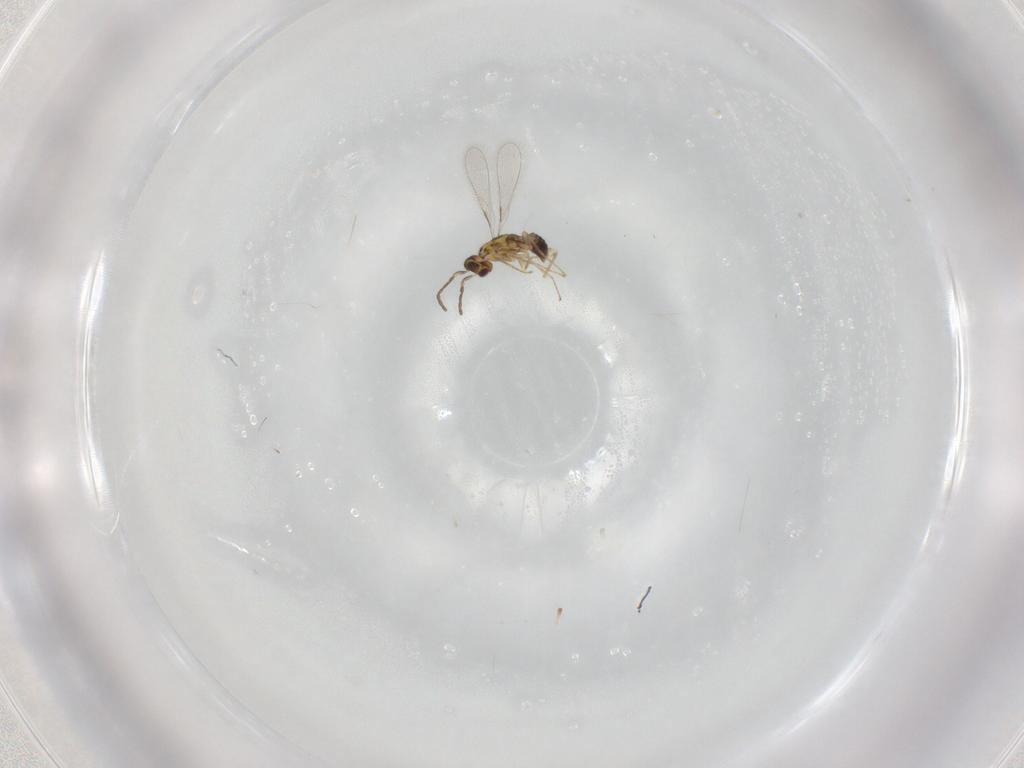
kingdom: Animalia
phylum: Arthropoda
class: Insecta
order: Hymenoptera
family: Mymaridae
